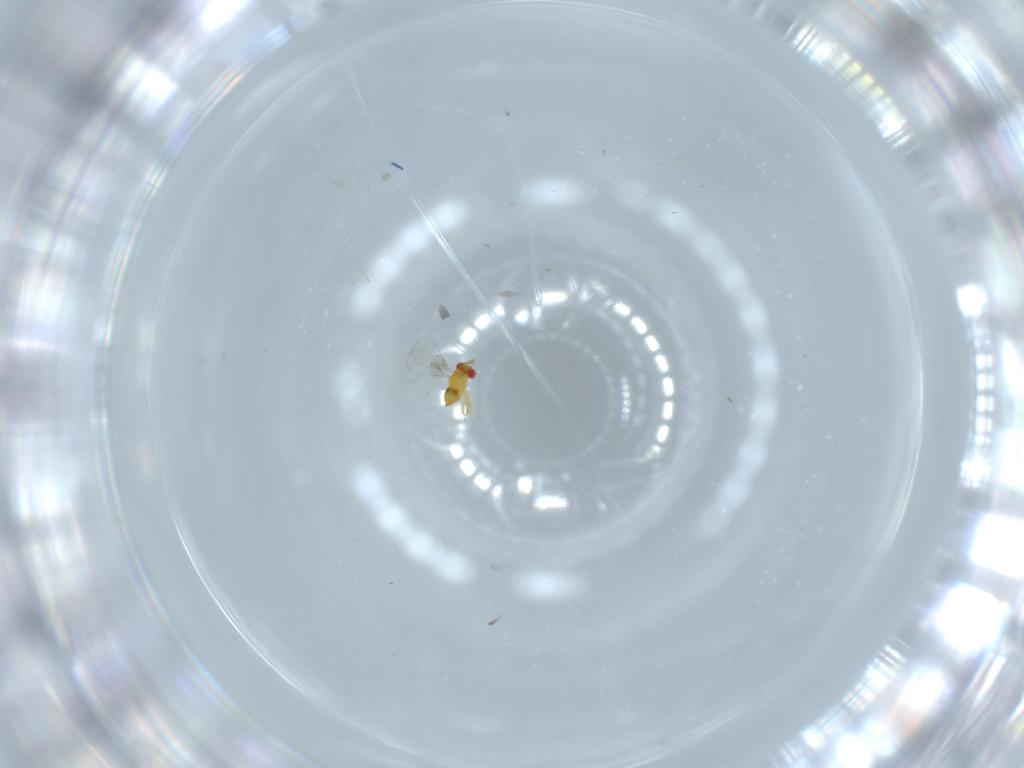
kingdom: Animalia
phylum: Arthropoda
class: Insecta
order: Hymenoptera
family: Trichogrammatidae
